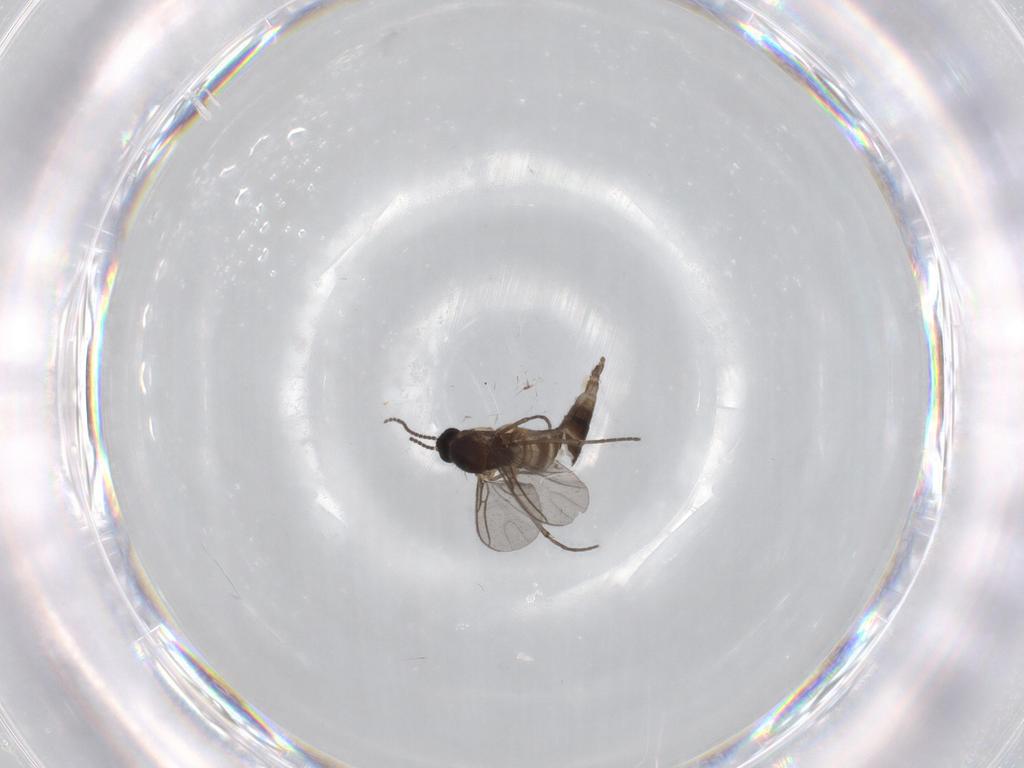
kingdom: Animalia
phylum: Arthropoda
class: Insecta
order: Diptera
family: Sciaridae
